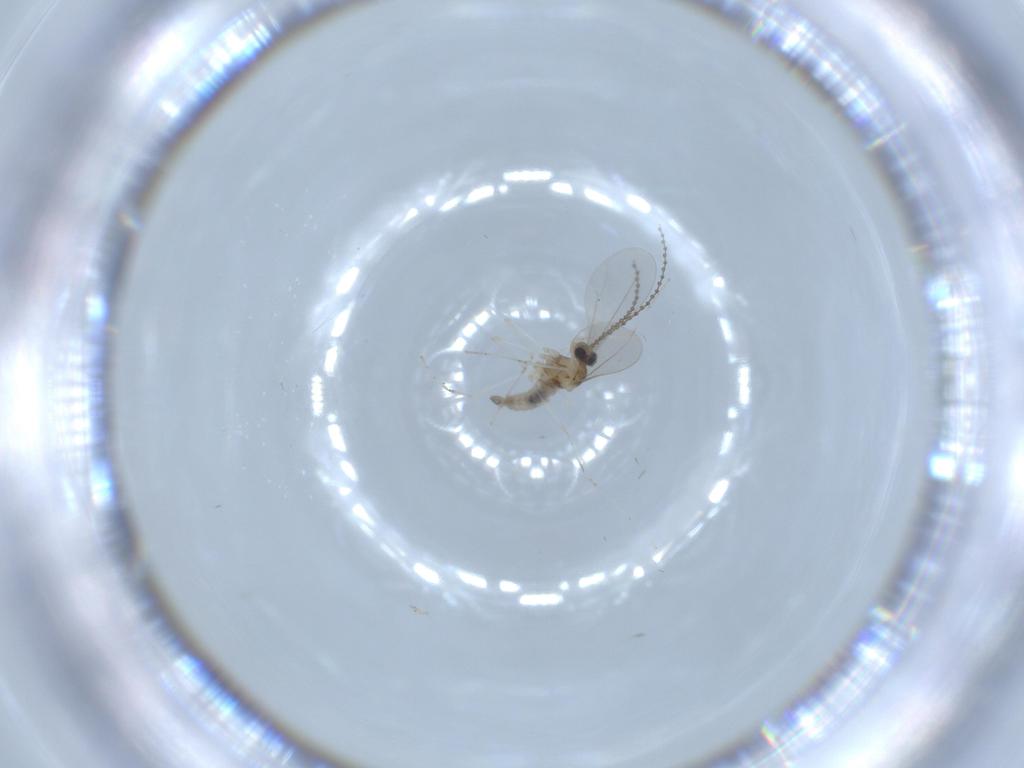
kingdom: Animalia
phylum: Arthropoda
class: Insecta
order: Diptera
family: Cecidomyiidae
